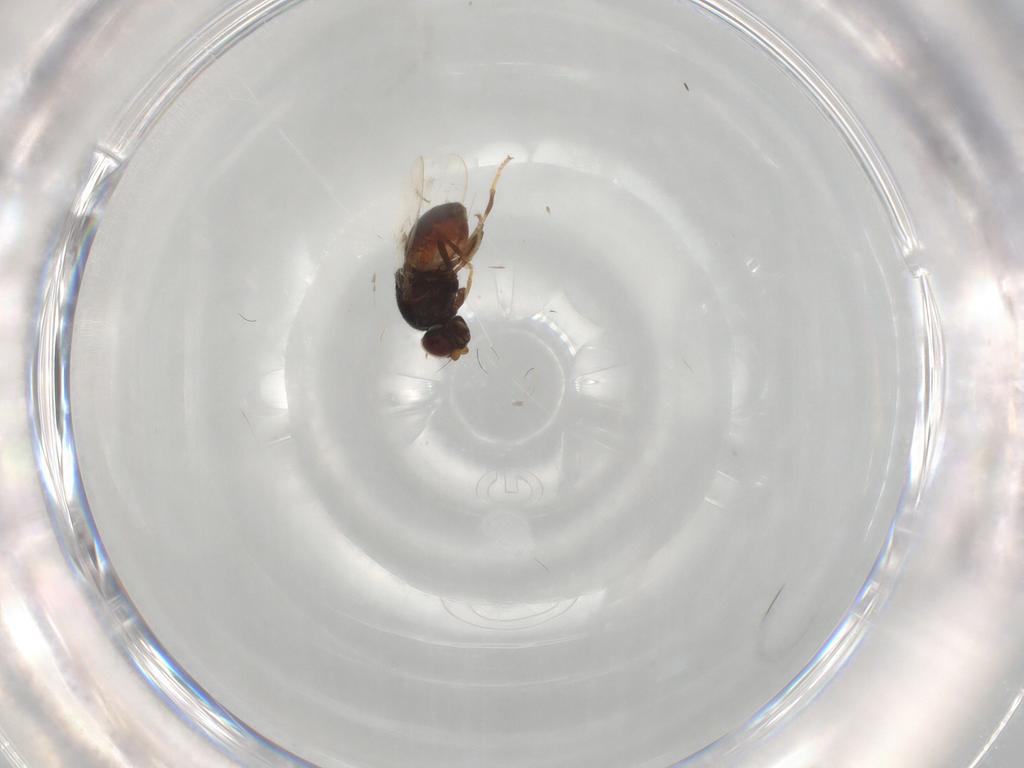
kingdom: Animalia
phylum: Arthropoda
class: Insecta
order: Diptera
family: Chloropidae
